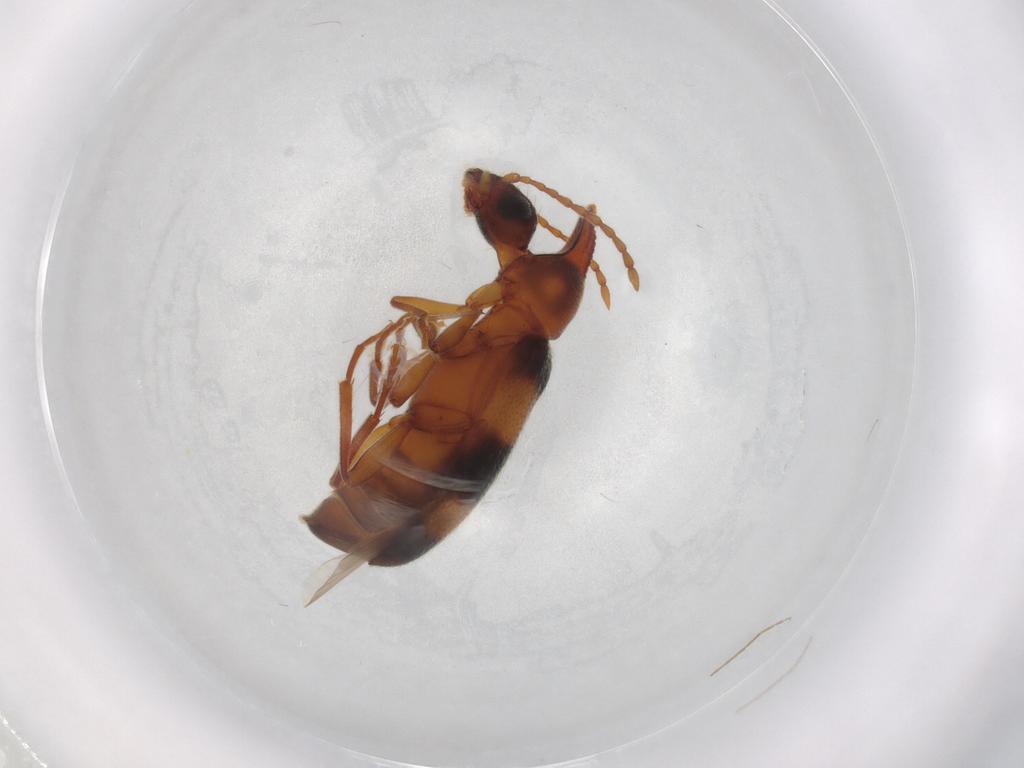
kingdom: Animalia
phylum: Arthropoda
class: Insecta
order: Coleoptera
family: Anthicidae
